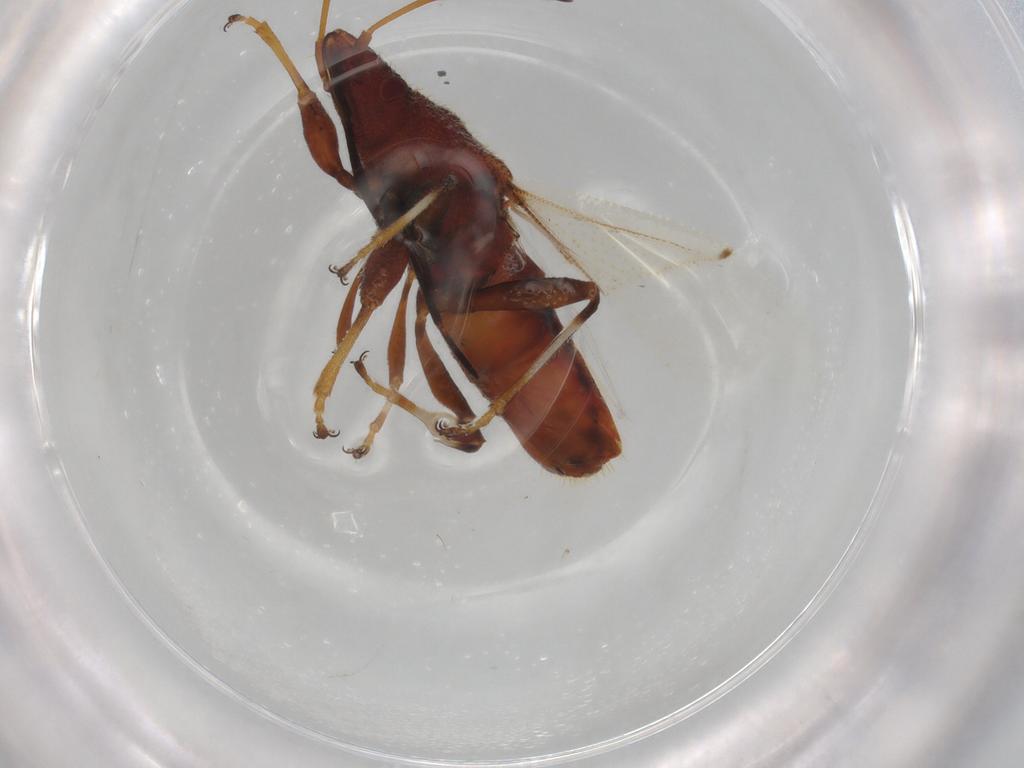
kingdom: Animalia
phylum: Arthropoda
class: Insecta
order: Hemiptera
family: Oxycarenidae
